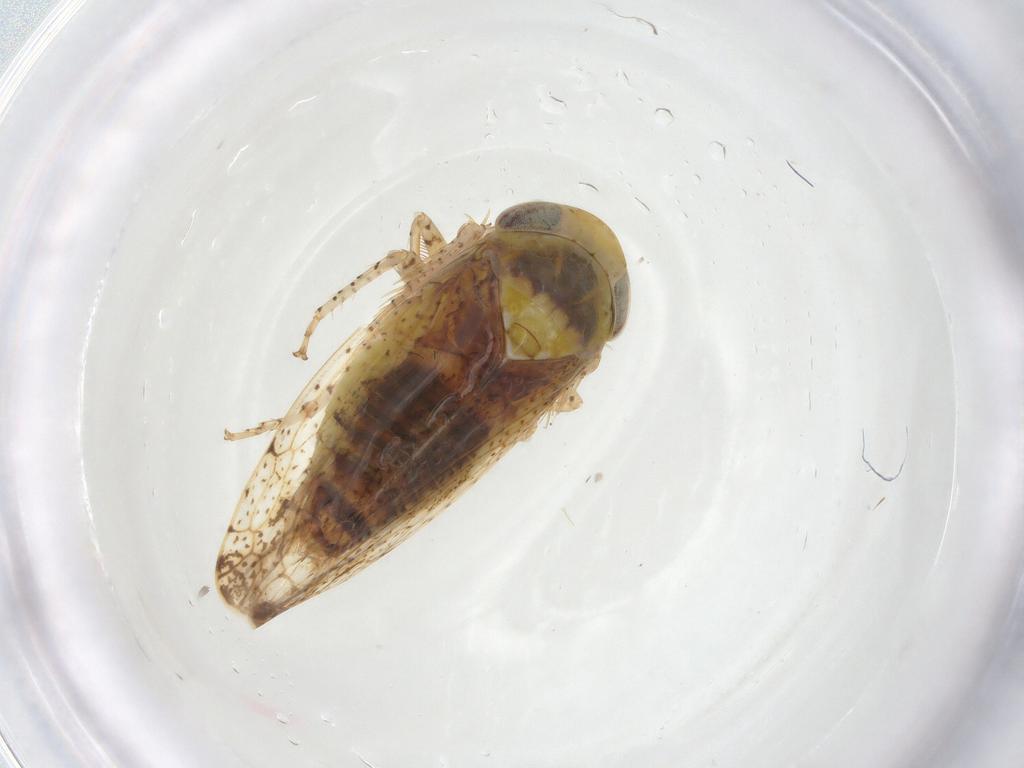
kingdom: Animalia
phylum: Arthropoda
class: Insecta
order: Hemiptera
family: Cicadellidae
